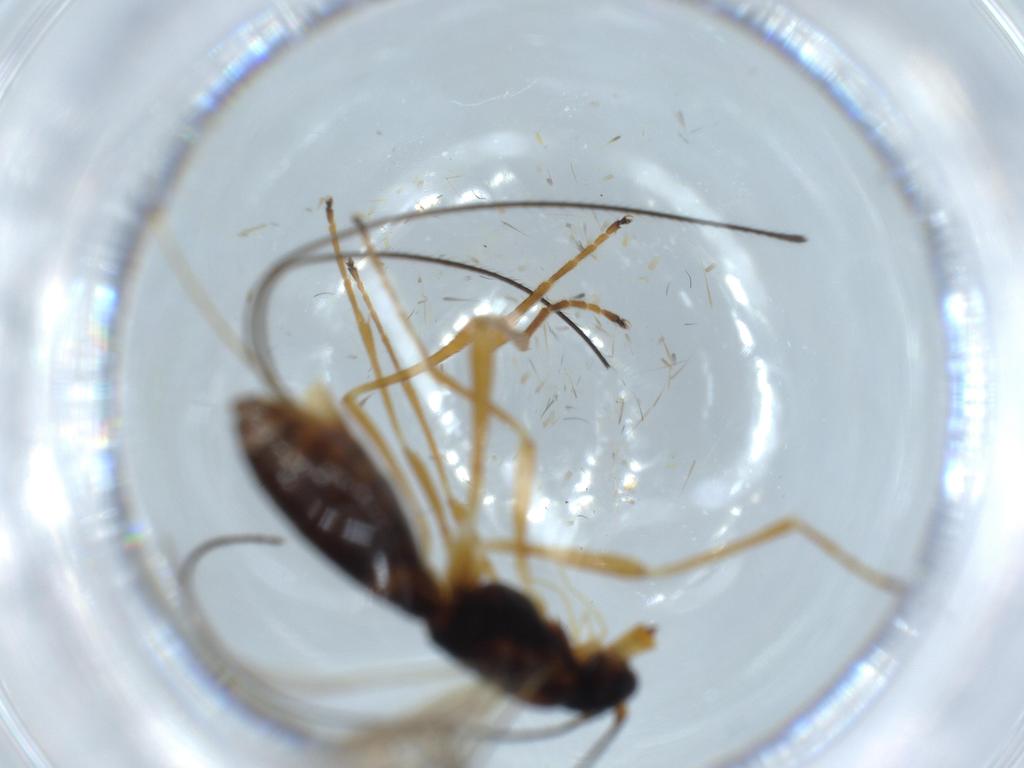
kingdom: Animalia
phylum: Arthropoda
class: Insecta
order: Hymenoptera
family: Braconidae
